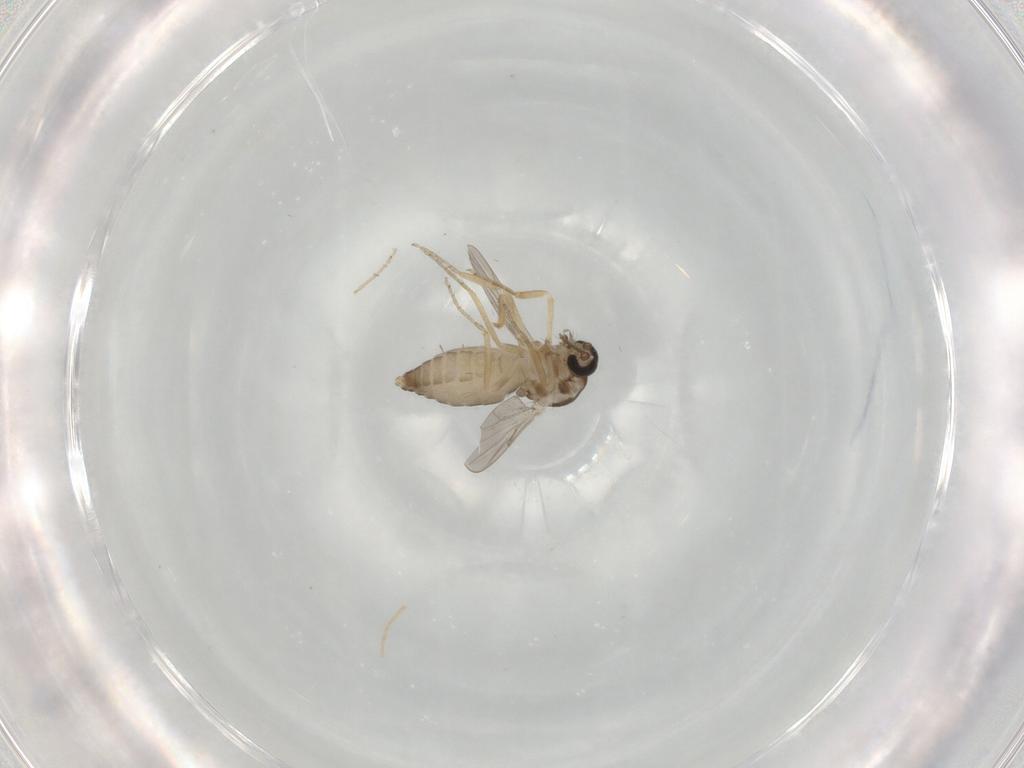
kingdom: Animalia
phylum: Arthropoda
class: Insecta
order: Diptera
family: Ceratopogonidae
